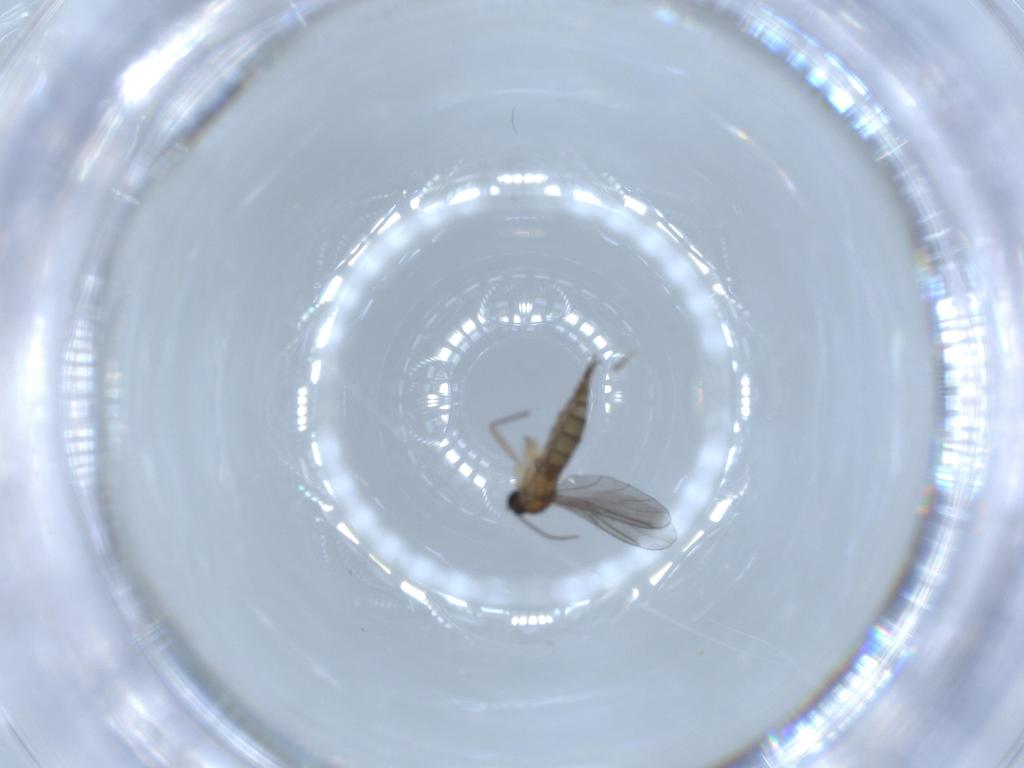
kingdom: Animalia
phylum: Arthropoda
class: Insecta
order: Diptera
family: Sciaridae
